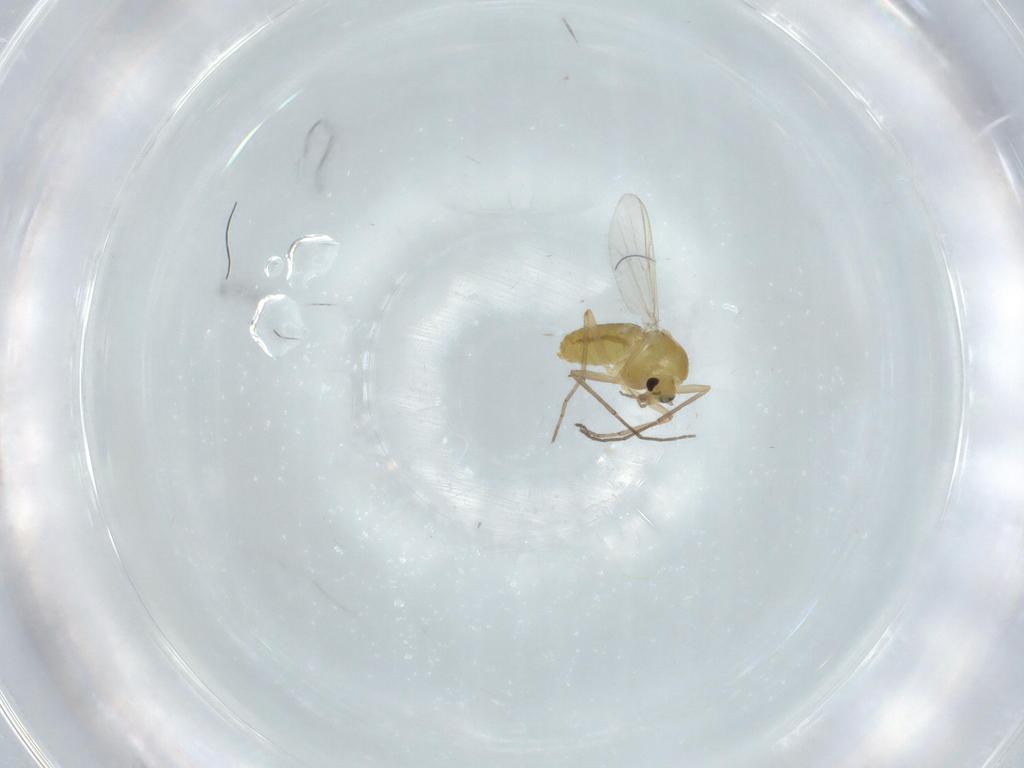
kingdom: Animalia
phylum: Arthropoda
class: Insecta
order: Diptera
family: Chironomidae
